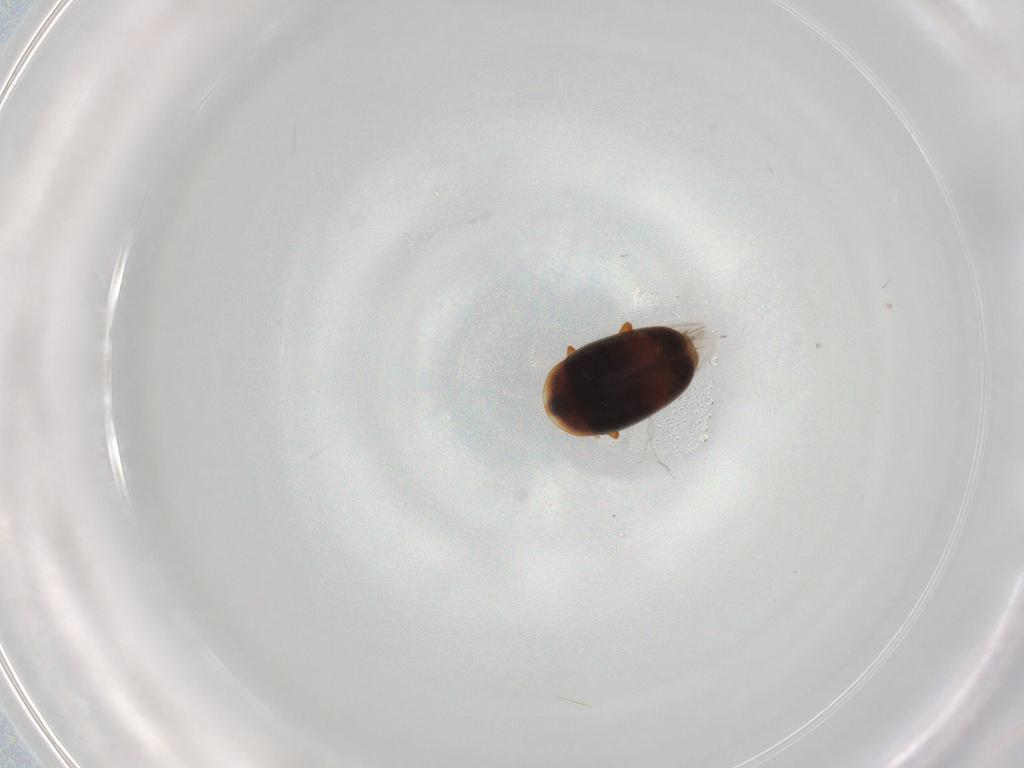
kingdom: Animalia
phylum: Arthropoda
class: Insecta
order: Coleoptera
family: Corylophidae
